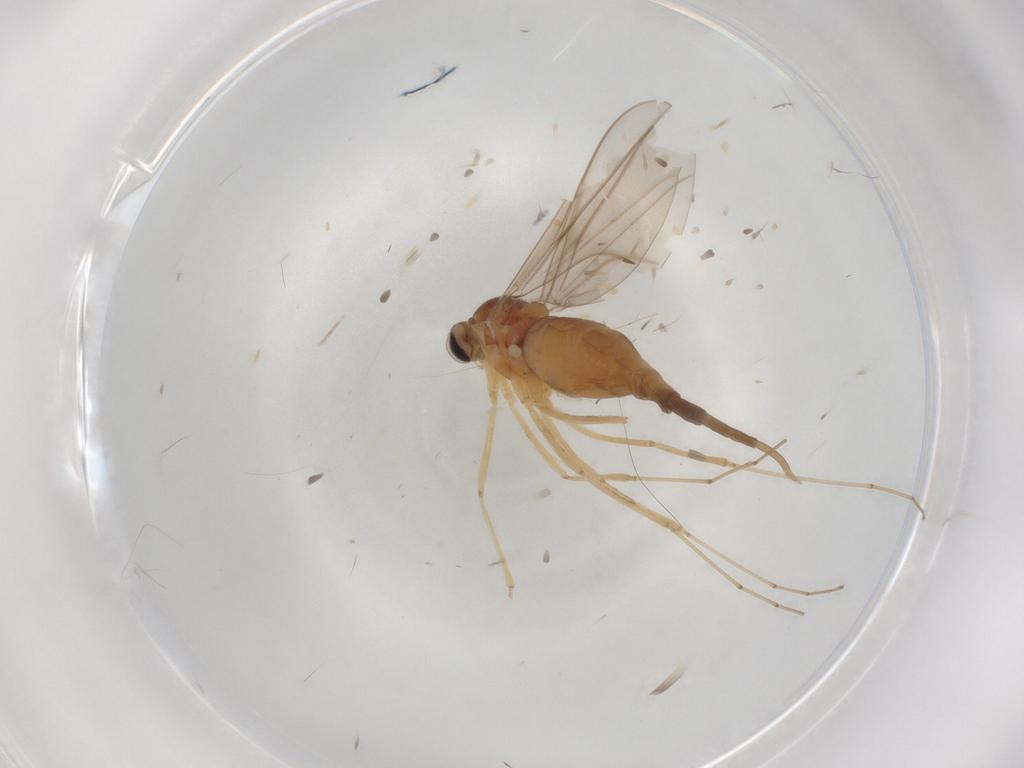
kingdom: Animalia
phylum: Arthropoda
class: Insecta
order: Diptera
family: Cecidomyiidae
